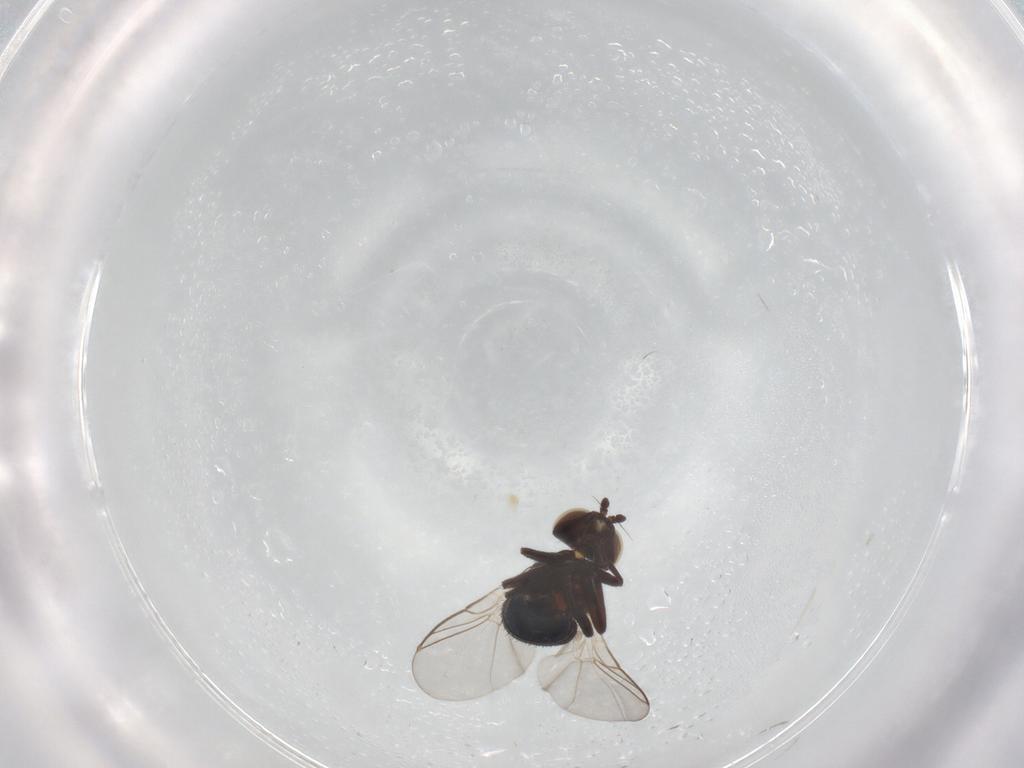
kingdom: Animalia
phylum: Arthropoda
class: Insecta
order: Diptera
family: Agromyzidae
